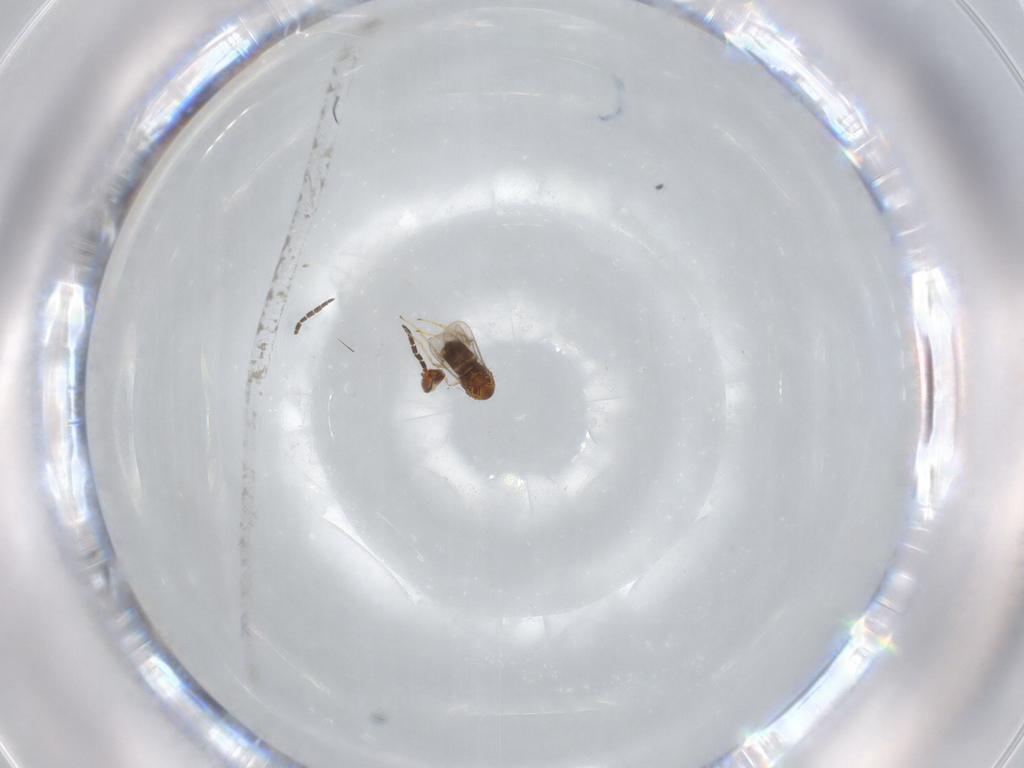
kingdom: Animalia
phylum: Arthropoda
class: Insecta
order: Hymenoptera
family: Aphelinidae
